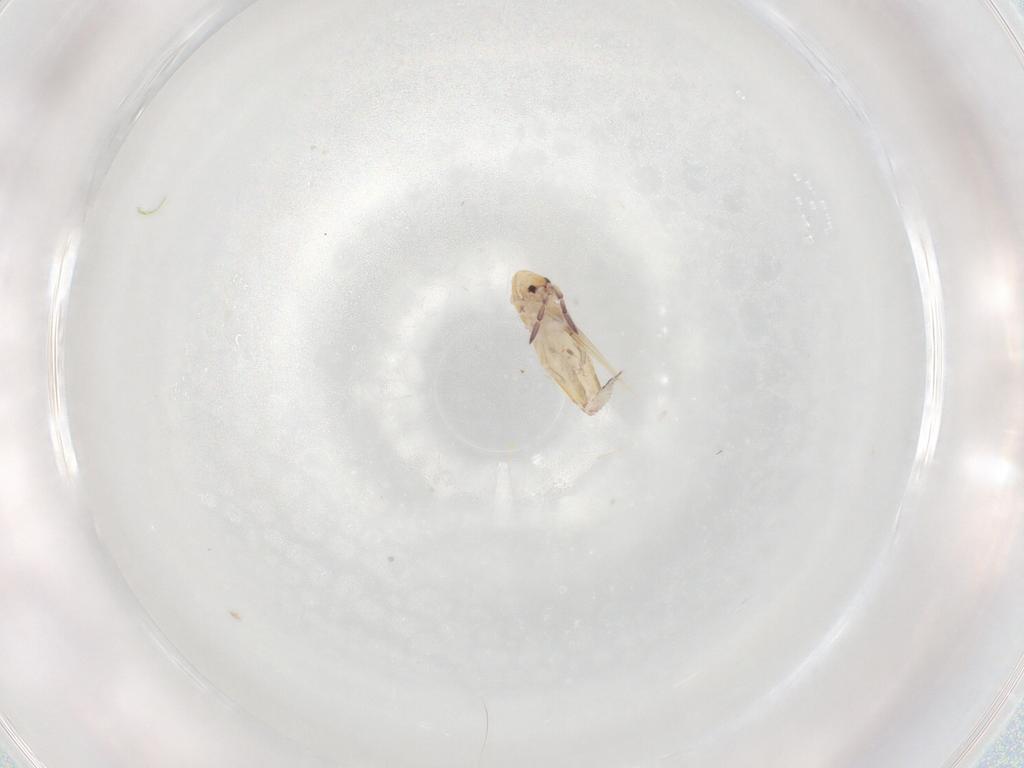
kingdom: Animalia
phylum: Arthropoda
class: Collembola
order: Entomobryomorpha
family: Entomobryidae
